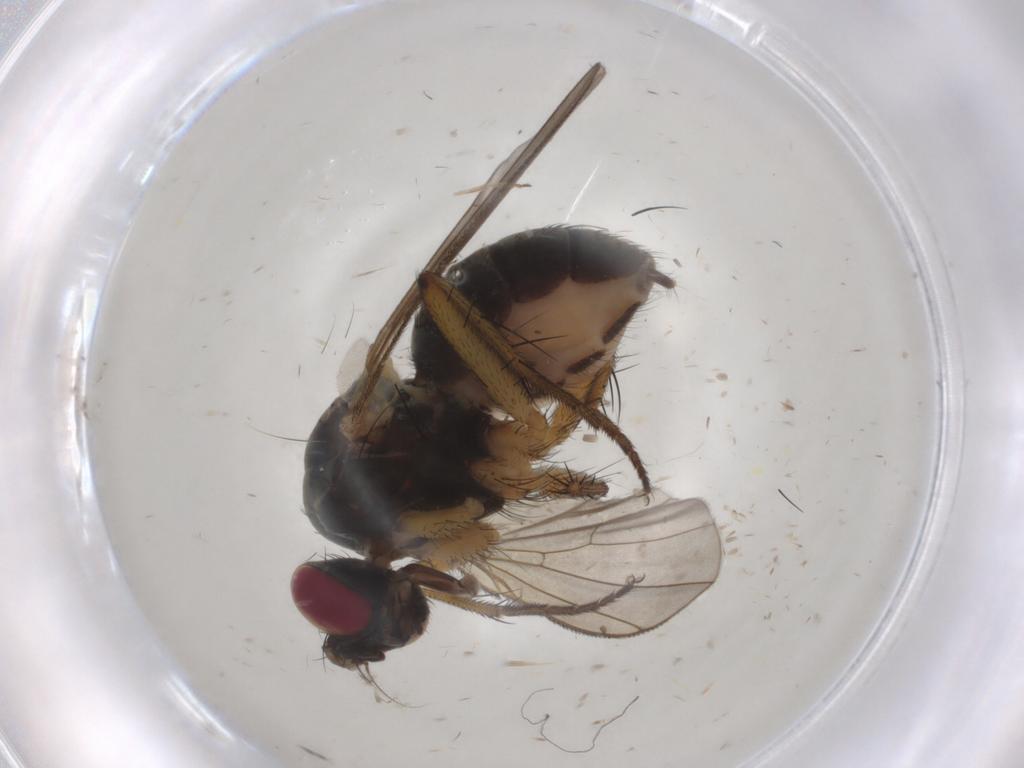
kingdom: Animalia
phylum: Arthropoda
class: Insecta
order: Diptera
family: Muscidae
